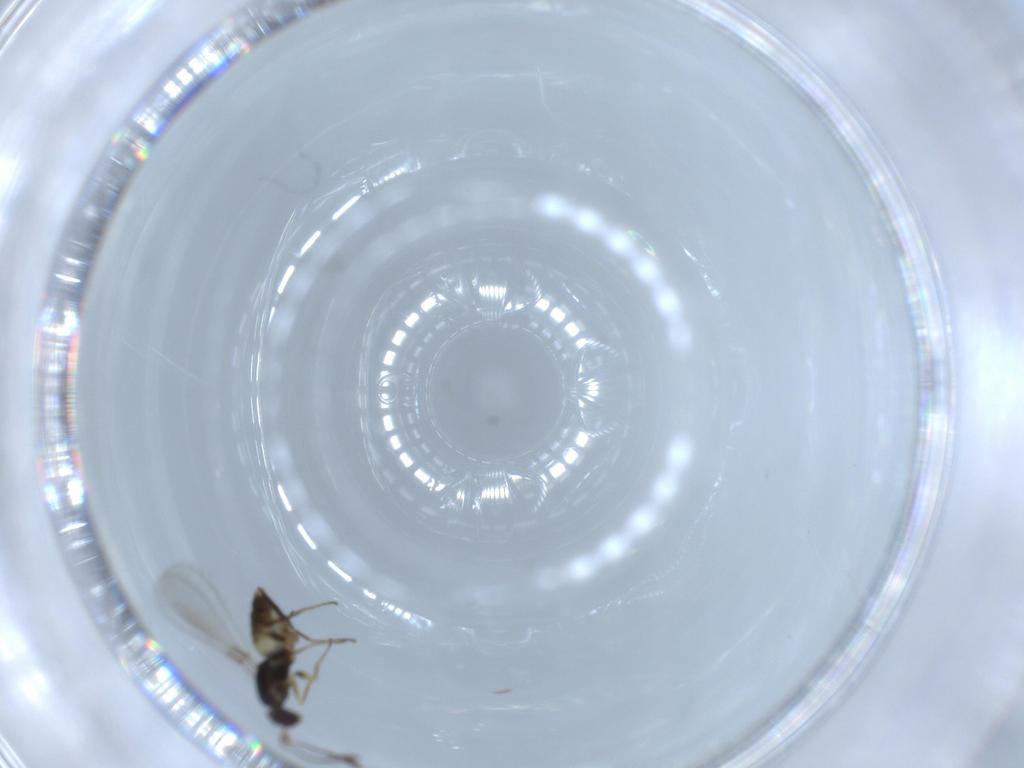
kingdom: Animalia
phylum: Arthropoda
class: Insecta
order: Hymenoptera
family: Mymaridae
